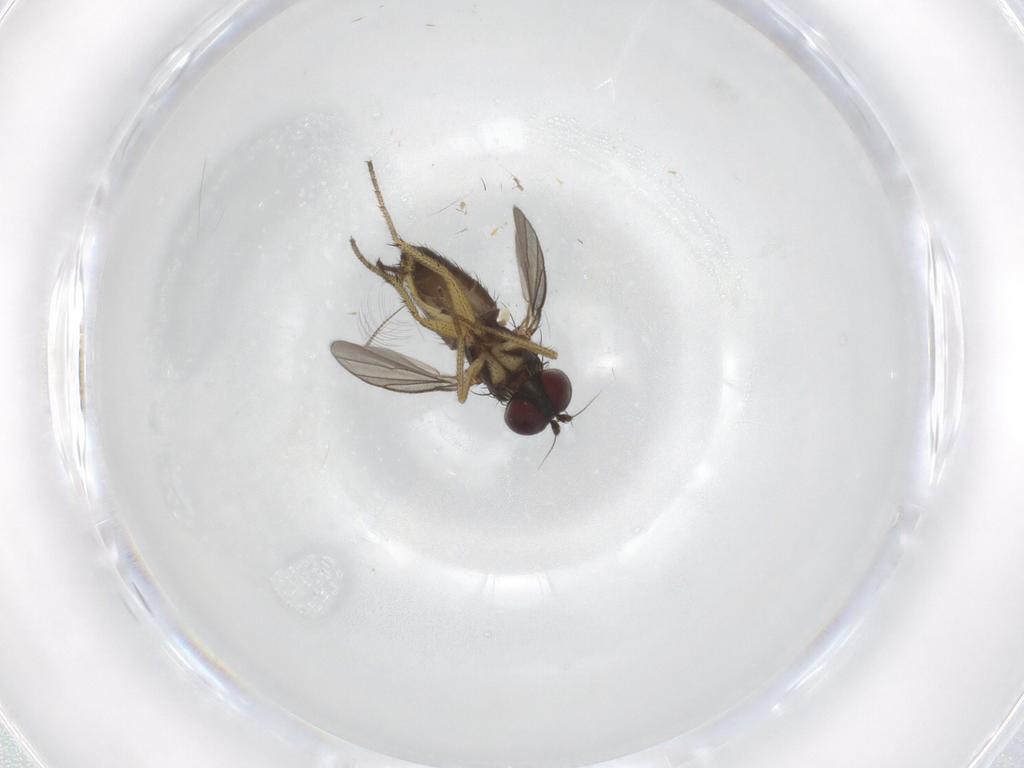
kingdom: Animalia
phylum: Arthropoda
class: Insecta
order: Diptera
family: Dolichopodidae
